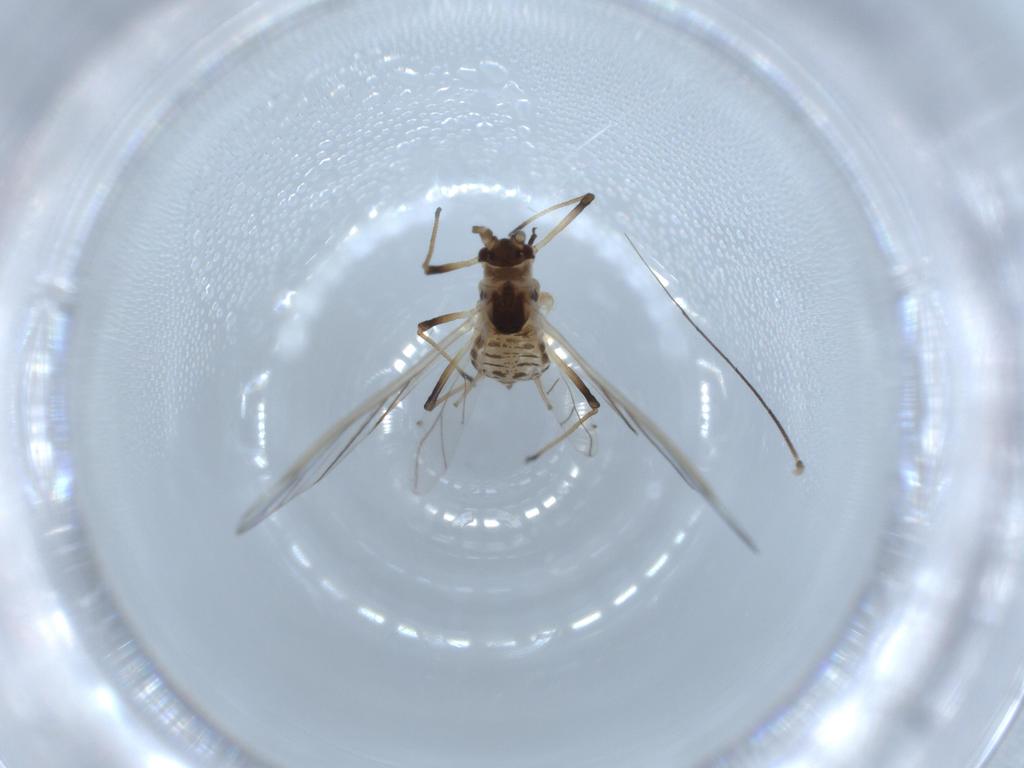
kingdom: Animalia
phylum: Arthropoda
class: Insecta
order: Hemiptera
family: Aphididae
